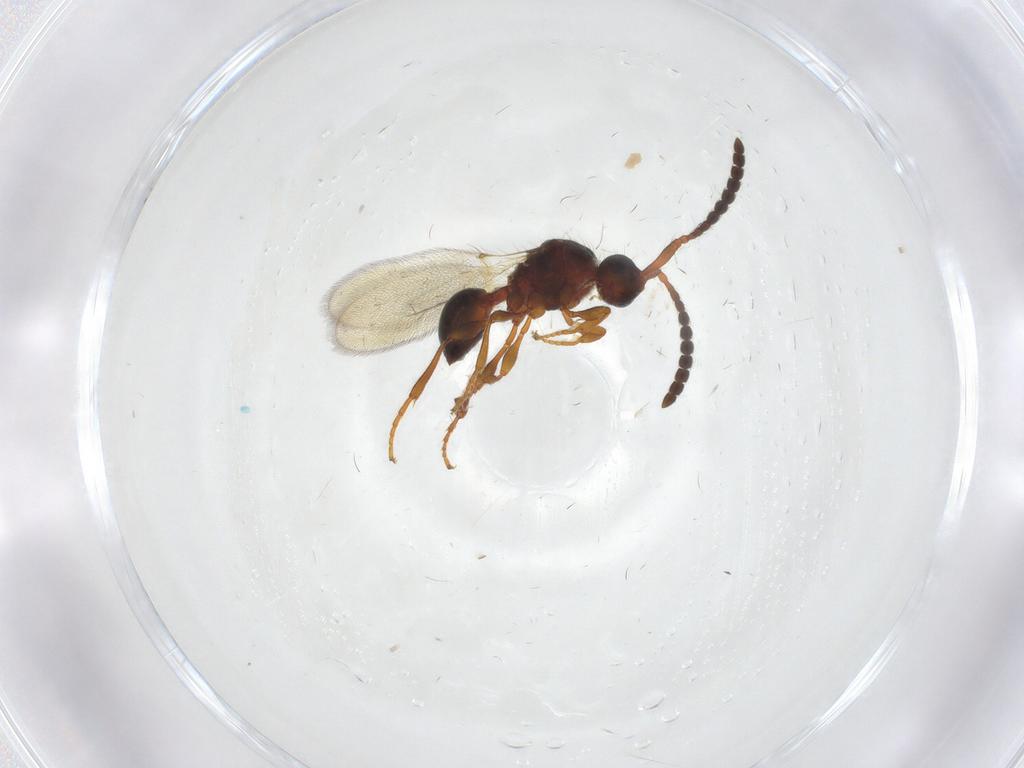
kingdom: Animalia
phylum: Arthropoda
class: Insecta
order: Hymenoptera
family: Diapriidae
